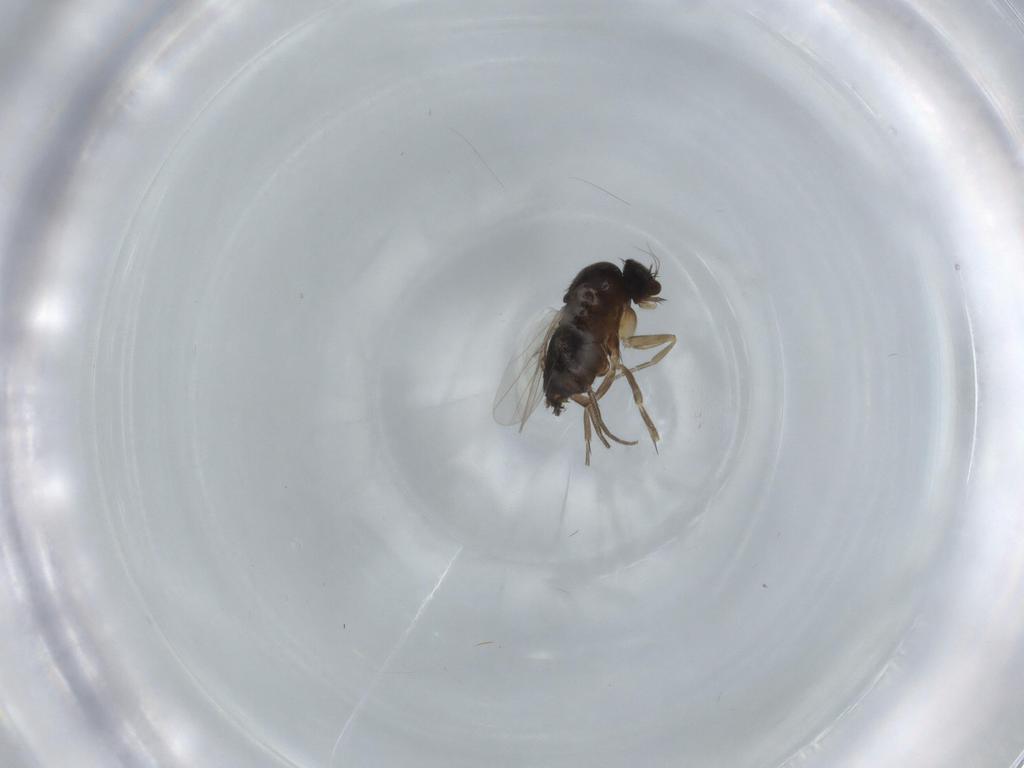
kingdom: Animalia
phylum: Arthropoda
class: Insecta
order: Diptera
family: Phoridae
